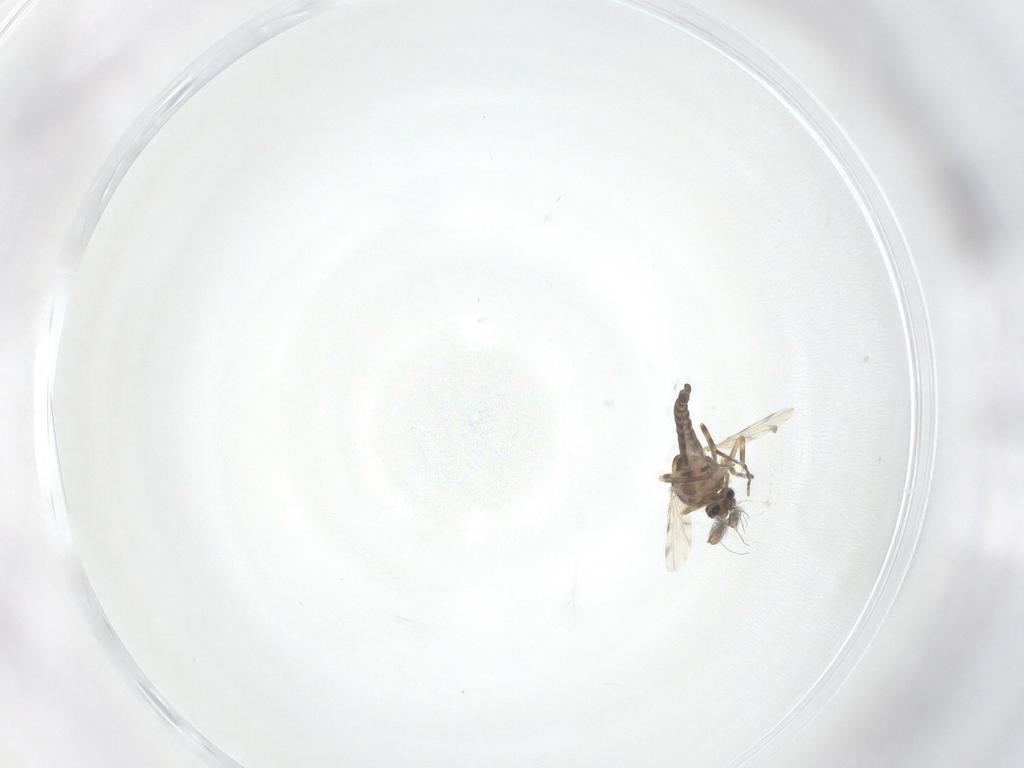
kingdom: Animalia
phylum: Arthropoda
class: Insecta
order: Diptera
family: Ceratopogonidae
